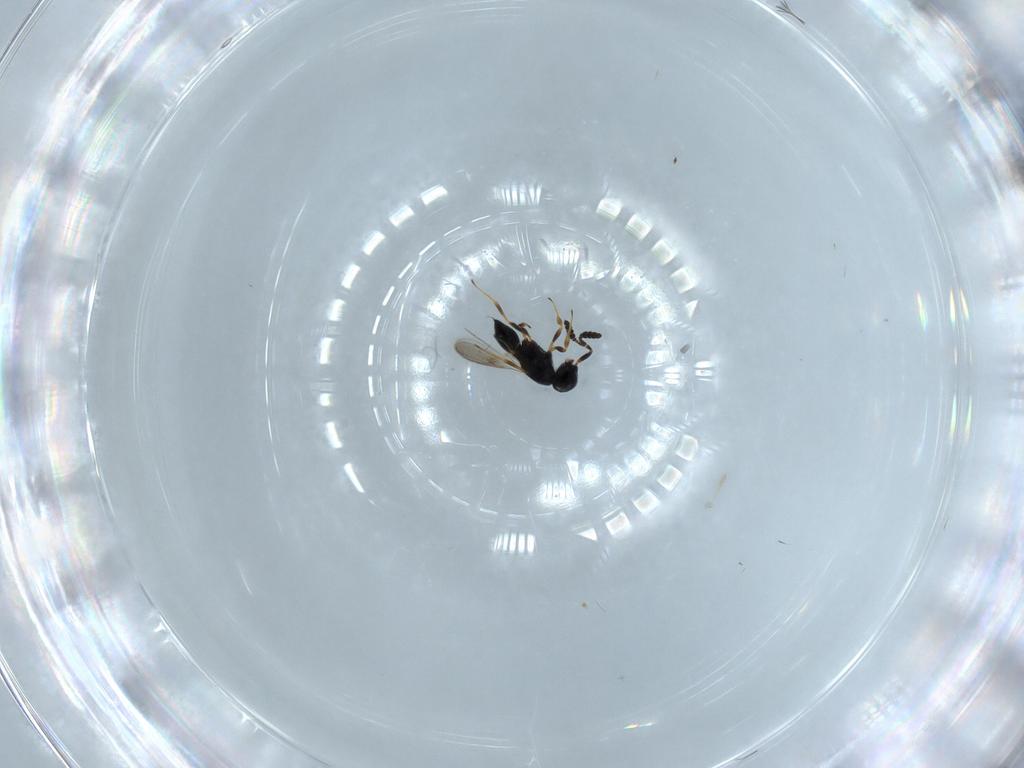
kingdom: Animalia
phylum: Arthropoda
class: Insecta
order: Hymenoptera
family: Scelionidae
